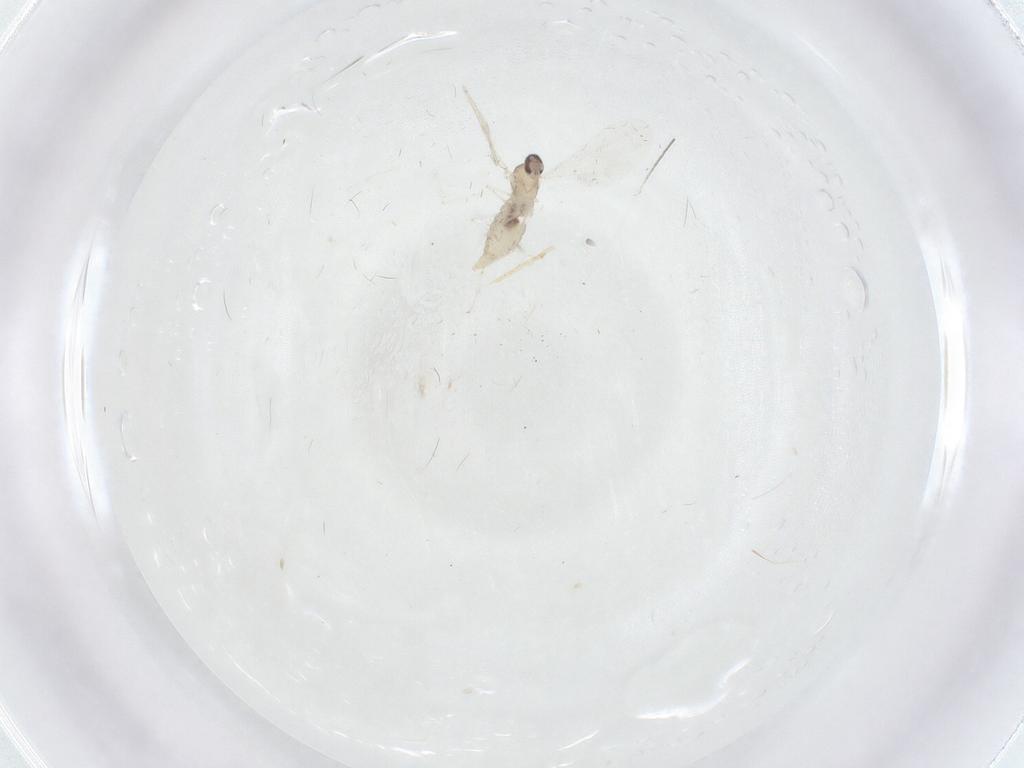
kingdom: Animalia
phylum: Arthropoda
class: Insecta
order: Diptera
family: Cecidomyiidae
